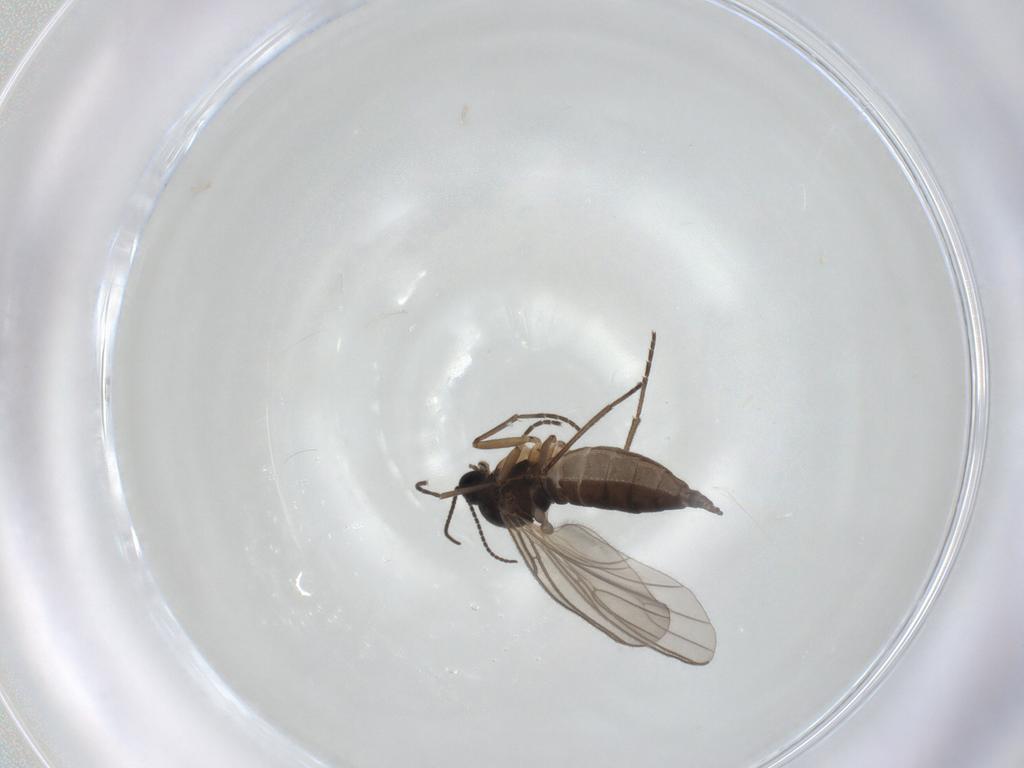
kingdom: Animalia
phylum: Arthropoda
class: Insecta
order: Diptera
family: Sciaridae
